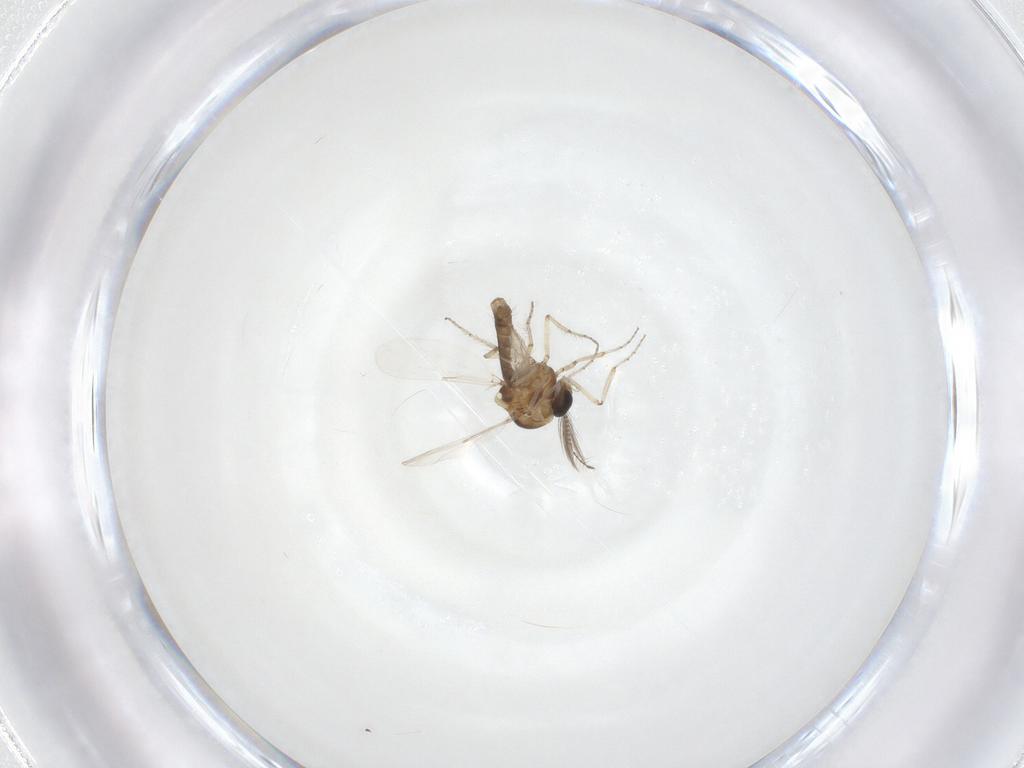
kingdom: Animalia
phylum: Arthropoda
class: Insecta
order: Diptera
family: Ceratopogonidae
